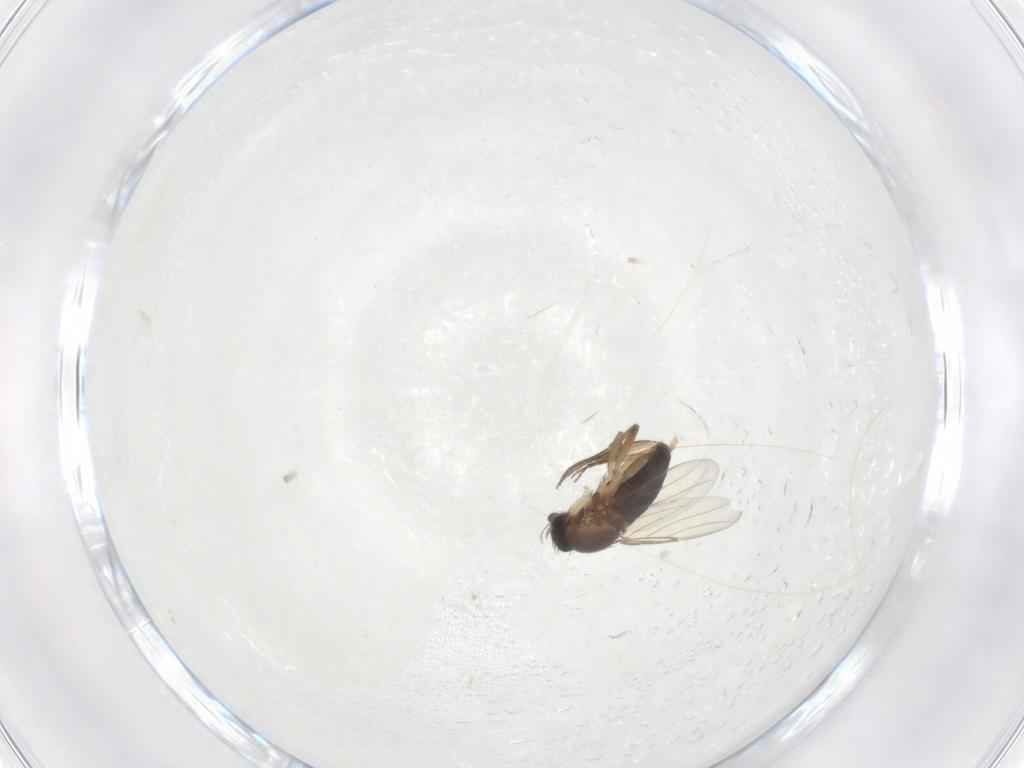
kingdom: Animalia
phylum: Arthropoda
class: Insecta
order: Diptera
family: Phoridae
